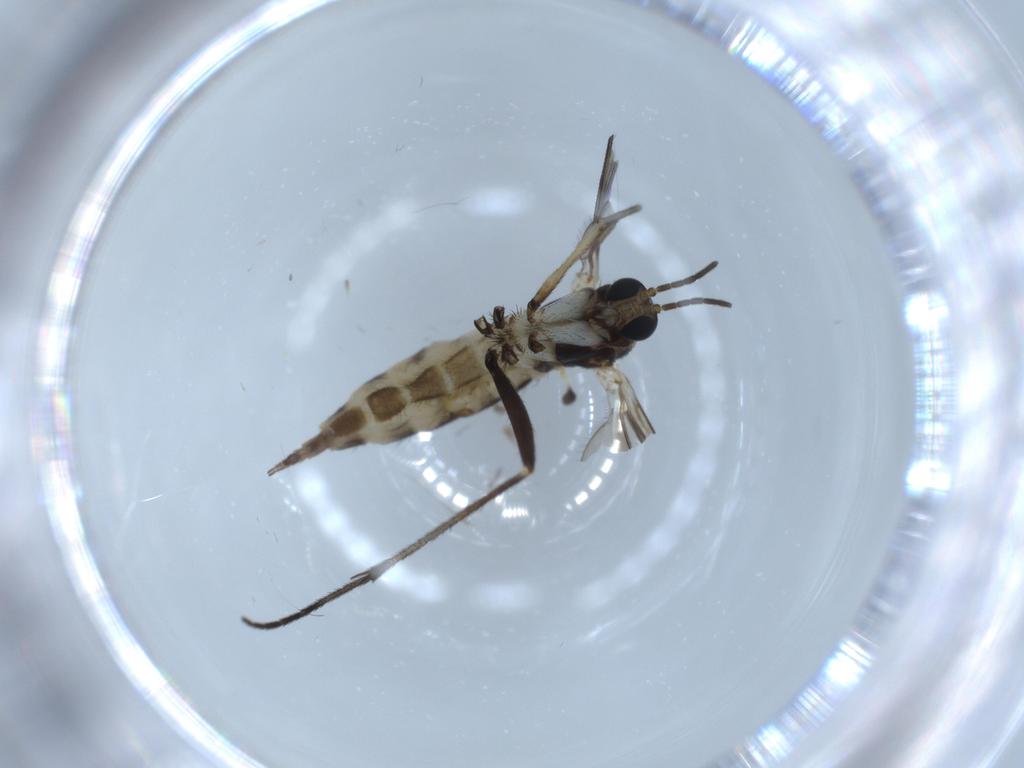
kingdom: Animalia
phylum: Arthropoda
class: Insecta
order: Diptera
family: Sciaridae
